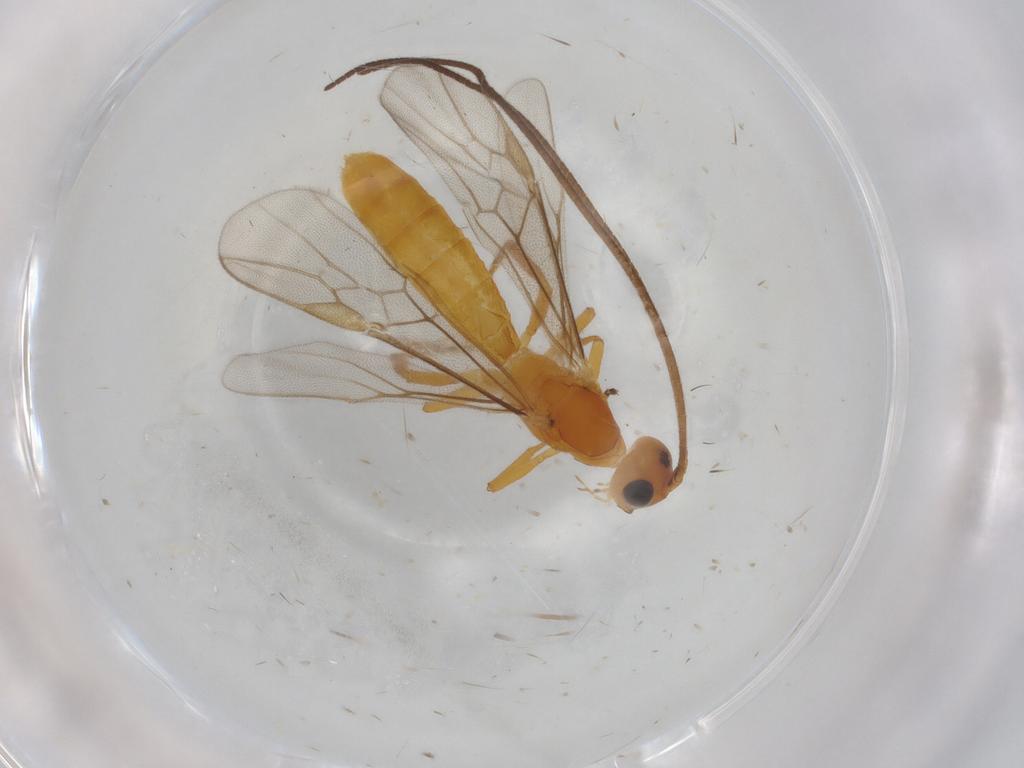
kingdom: Animalia
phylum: Arthropoda
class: Insecta
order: Hymenoptera
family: Braconidae
